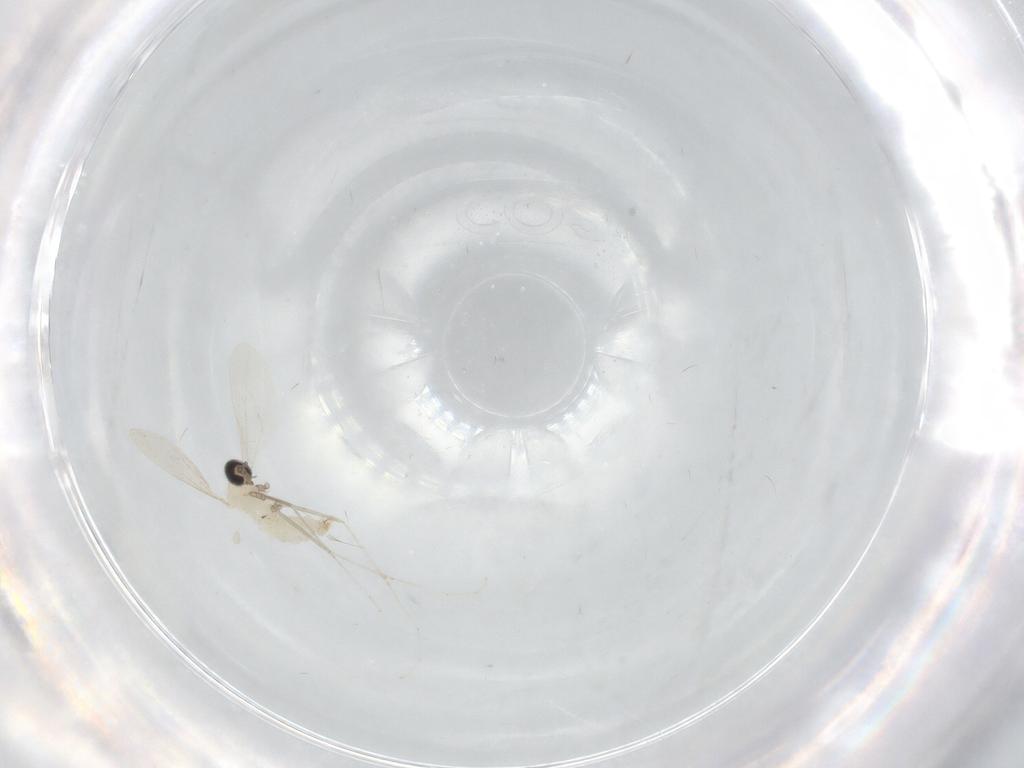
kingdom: Animalia
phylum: Arthropoda
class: Insecta
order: Diptera
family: Cecidomyiidae
